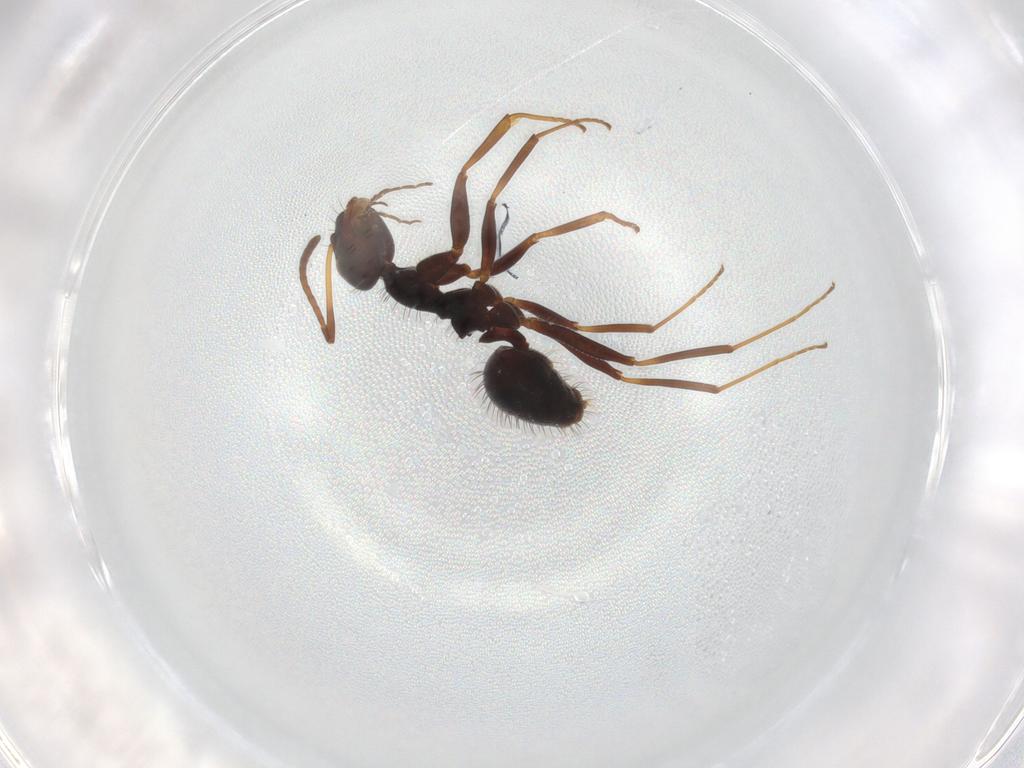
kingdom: Animalia
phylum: Arthropoda
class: Insecta
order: Hymenoptera
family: Formicidae
